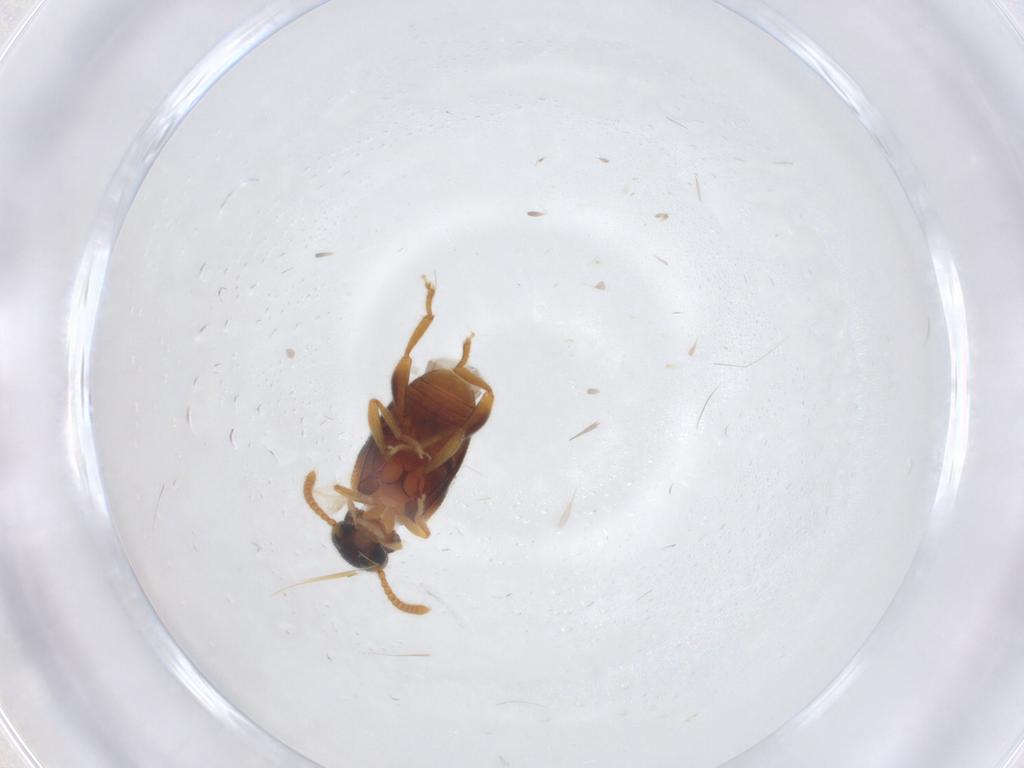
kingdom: Animalia
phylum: Arthropoda
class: Insecta
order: Coleoptera
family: Aderidae
